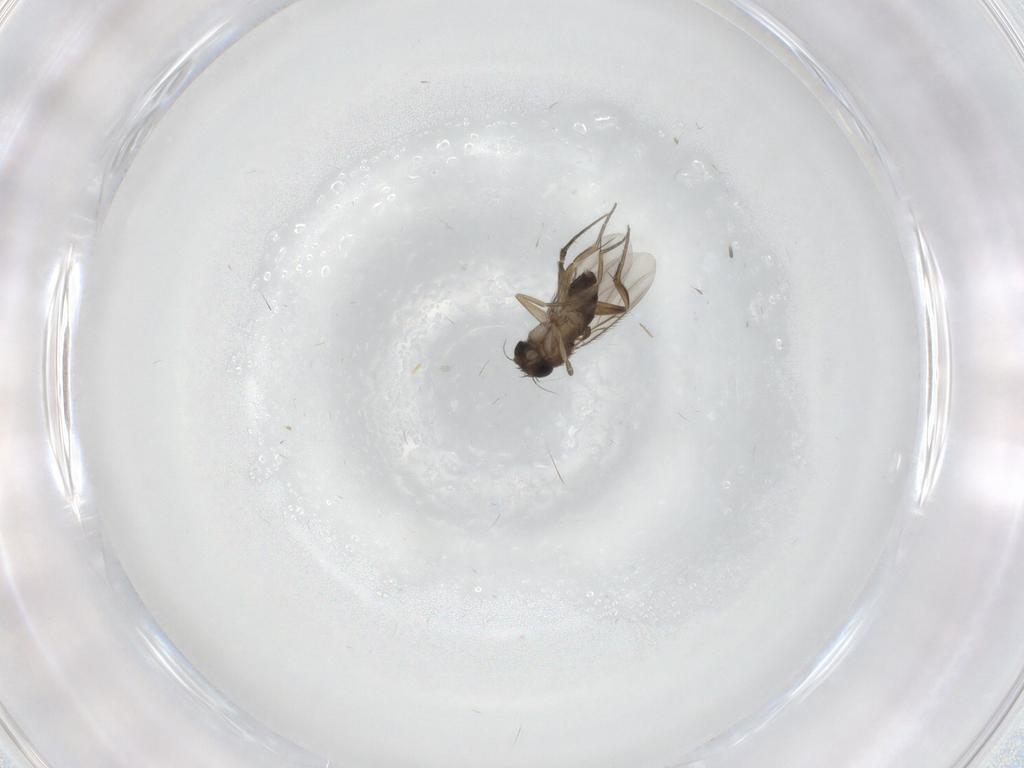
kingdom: Animalia
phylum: Arthropoda
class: Insecta
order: Diptera
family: Phoridae
